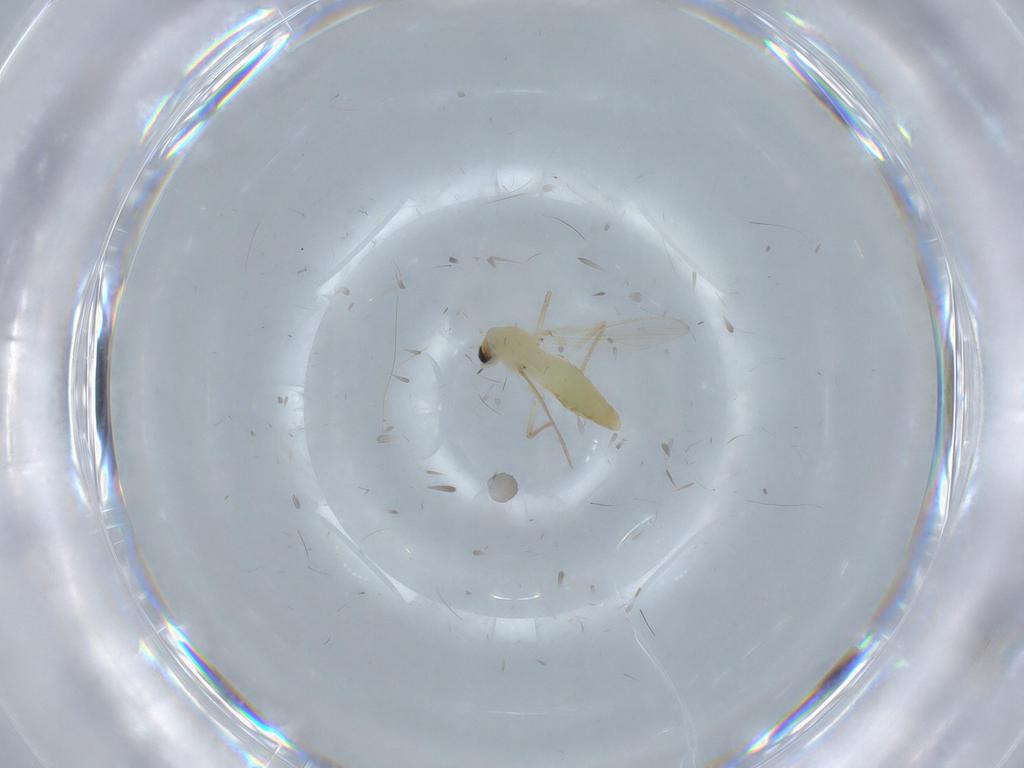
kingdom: Animalia
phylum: Arthropoda
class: Insecta
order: Diptera
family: Chironomidae
